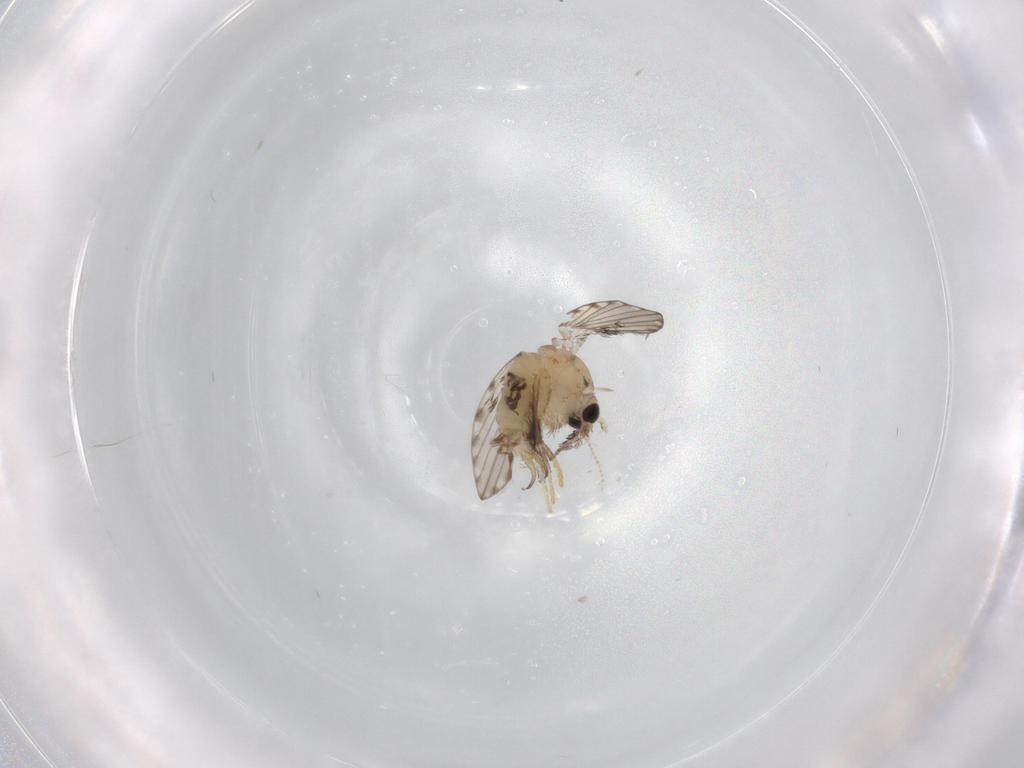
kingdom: Animalia
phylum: Arthropoda
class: Insecta
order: Diptera
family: Psychodidae
